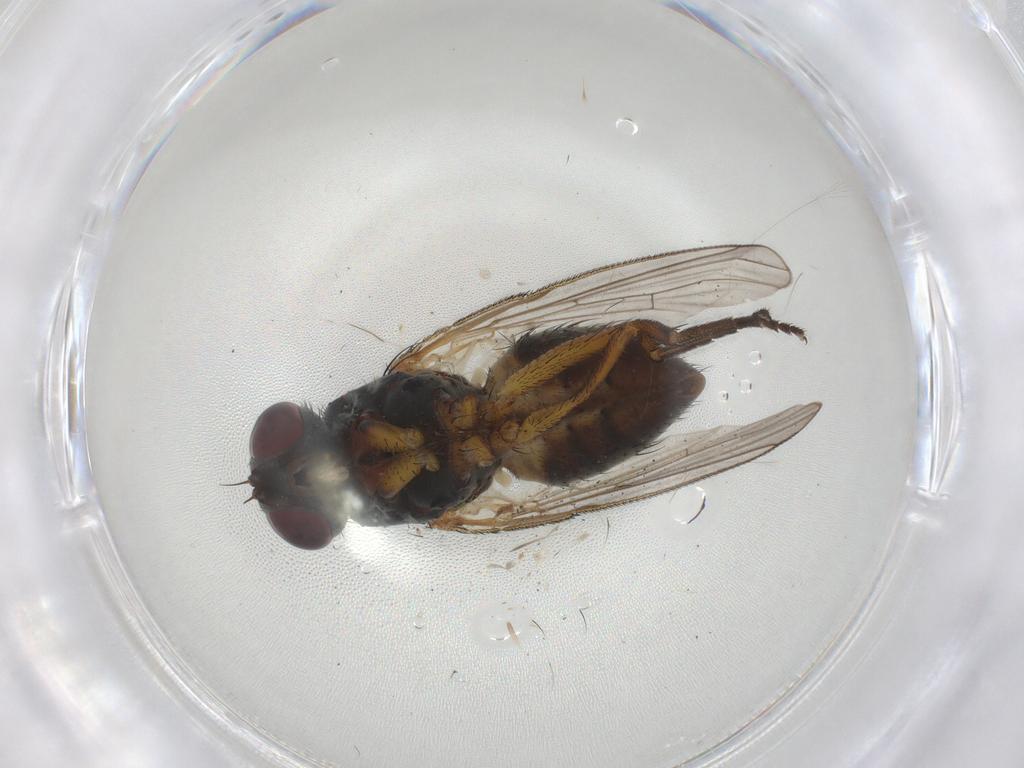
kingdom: Animalia
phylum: Arthropoda
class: Insecta
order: Diptera
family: Muscidae
